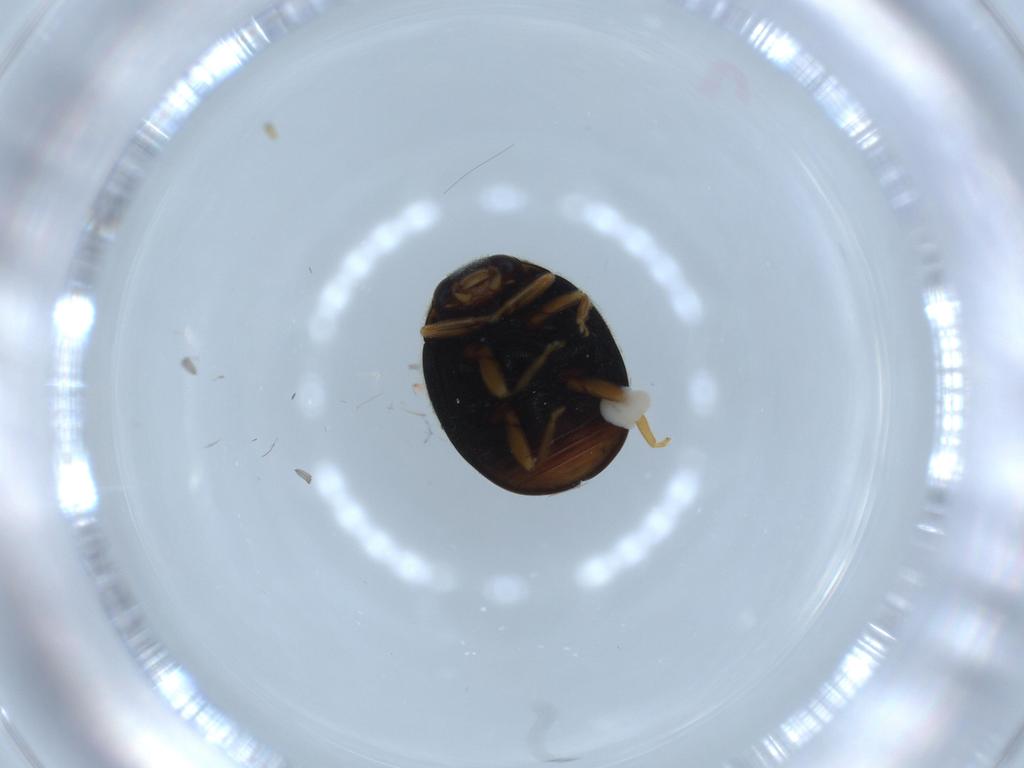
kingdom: Animalia
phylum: Arthropoda
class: Insecta
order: Coleoptera
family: Coccinellidae
